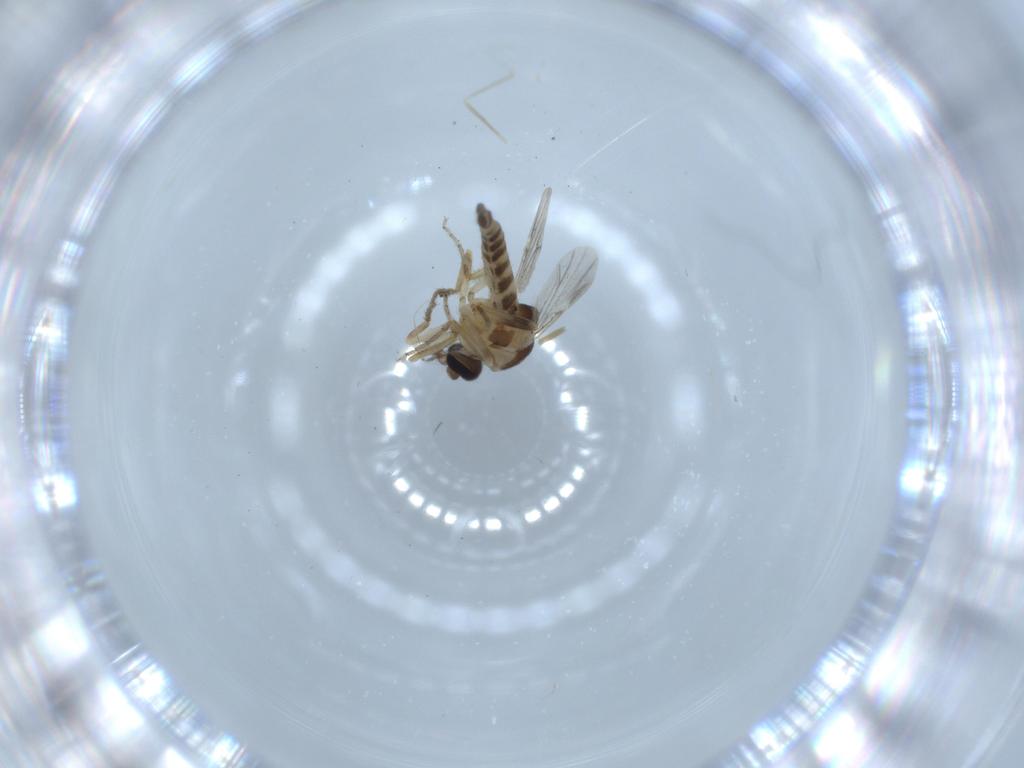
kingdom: Animalia
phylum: Arthropoda
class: Insecta
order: Diptera
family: Ceratopogonidae
